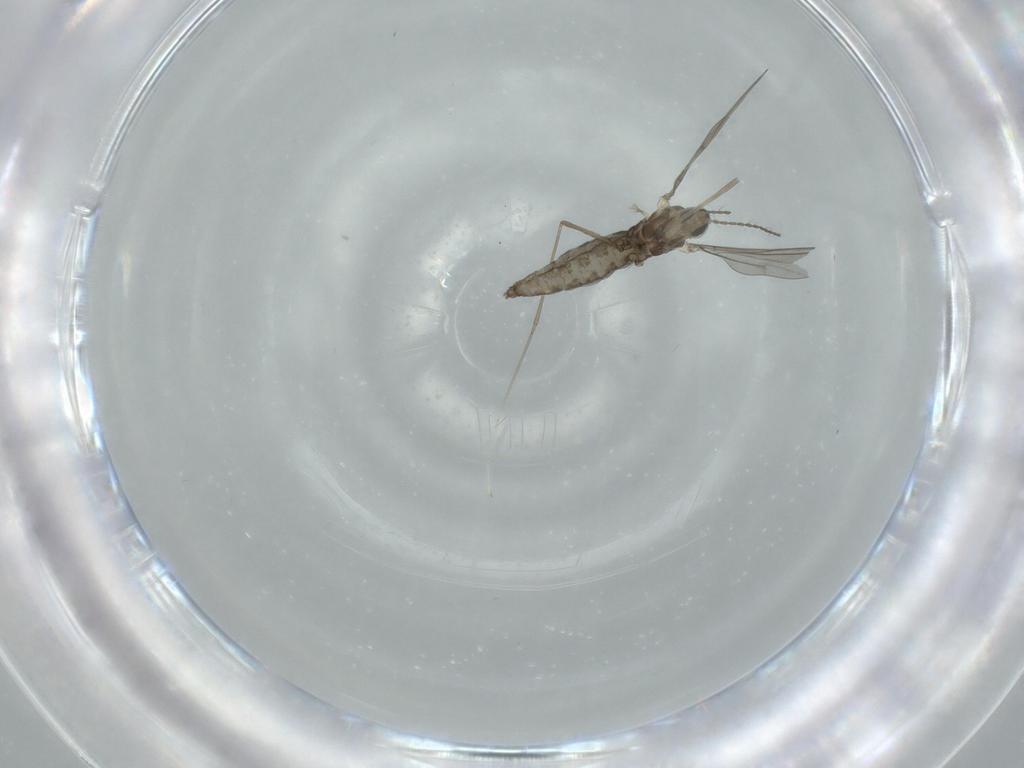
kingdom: Animalia
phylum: Arthropoda
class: Insecta
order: Diptera
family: Cecidomyiidae
